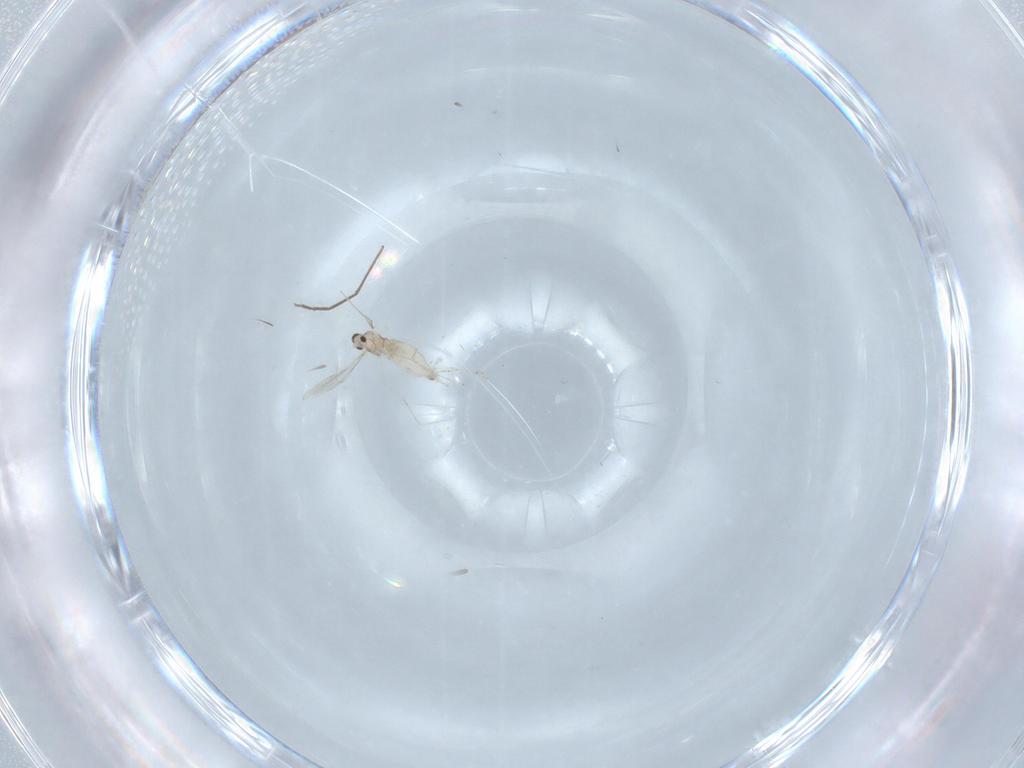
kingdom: Animalia
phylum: Arthropoda
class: Insecta
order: Diptera
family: Cecidomyiidae
